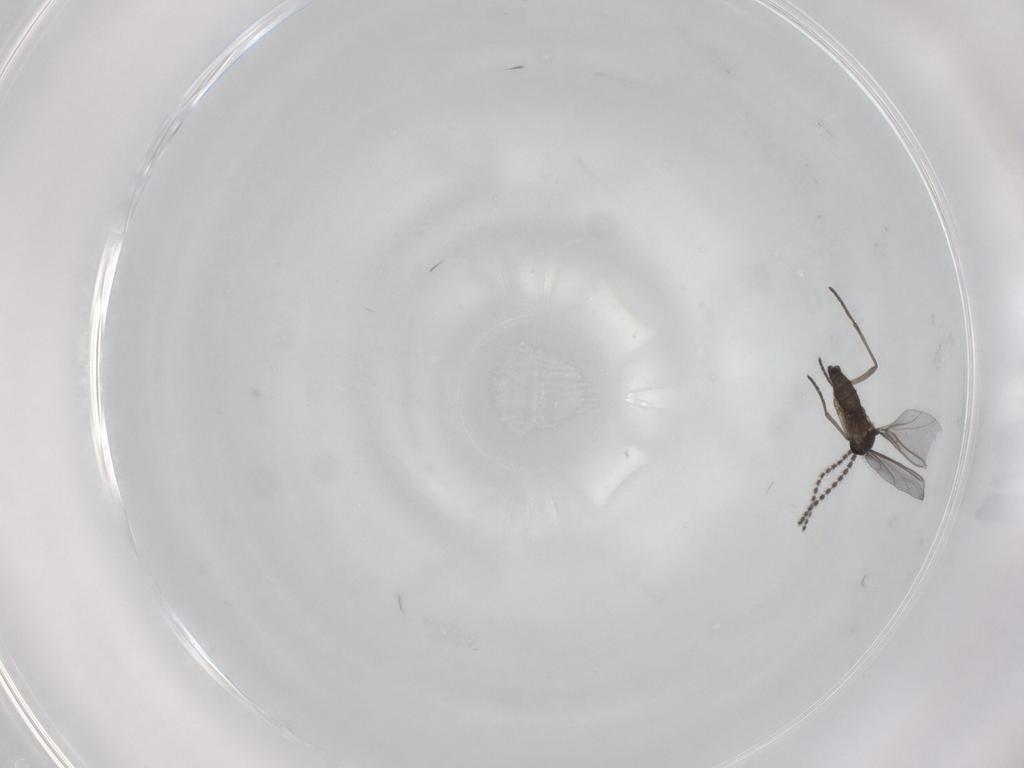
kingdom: Animalia
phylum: Arthropoda
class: Insecta
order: Diptera
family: Sciaridae
